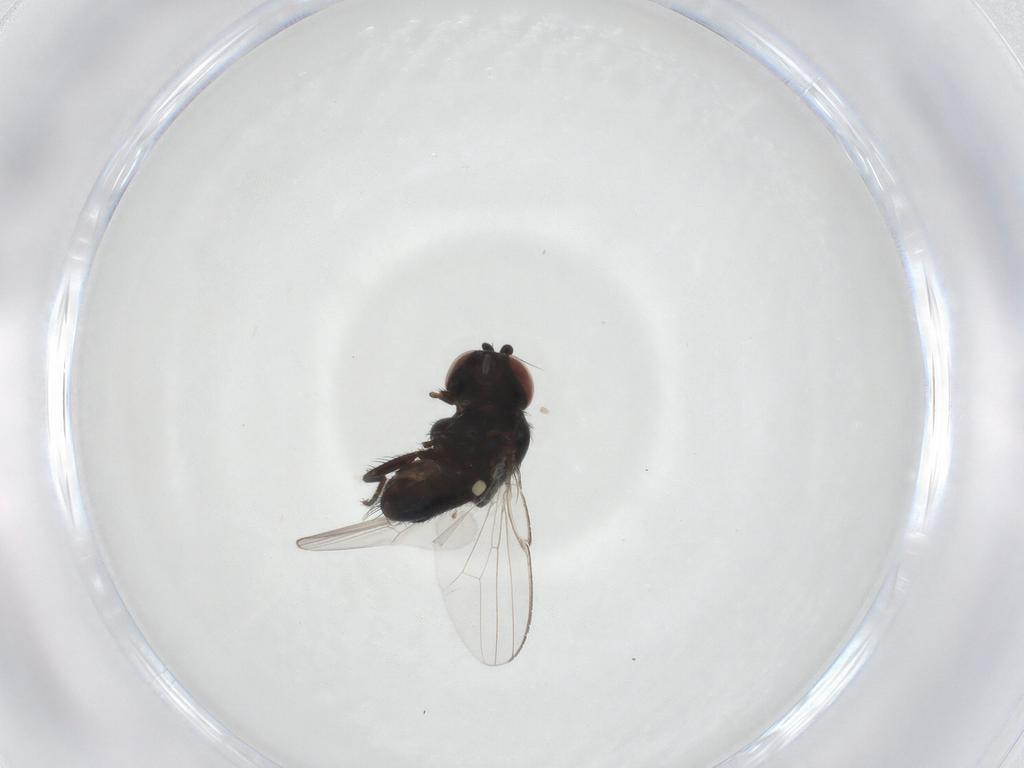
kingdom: Animalia
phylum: Arthropoda
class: Insecta
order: Diptera
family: Milichiidae
